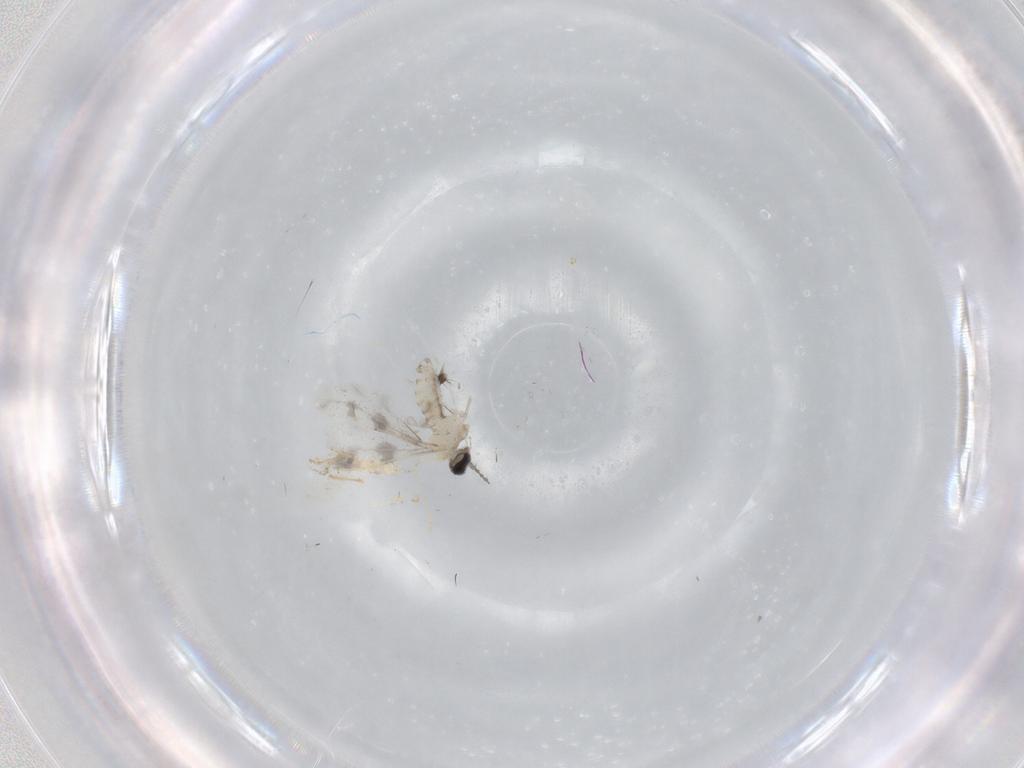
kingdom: Animalia
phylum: Arthropoda
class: Insecta
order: Diptera
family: Cecidomyiidae
